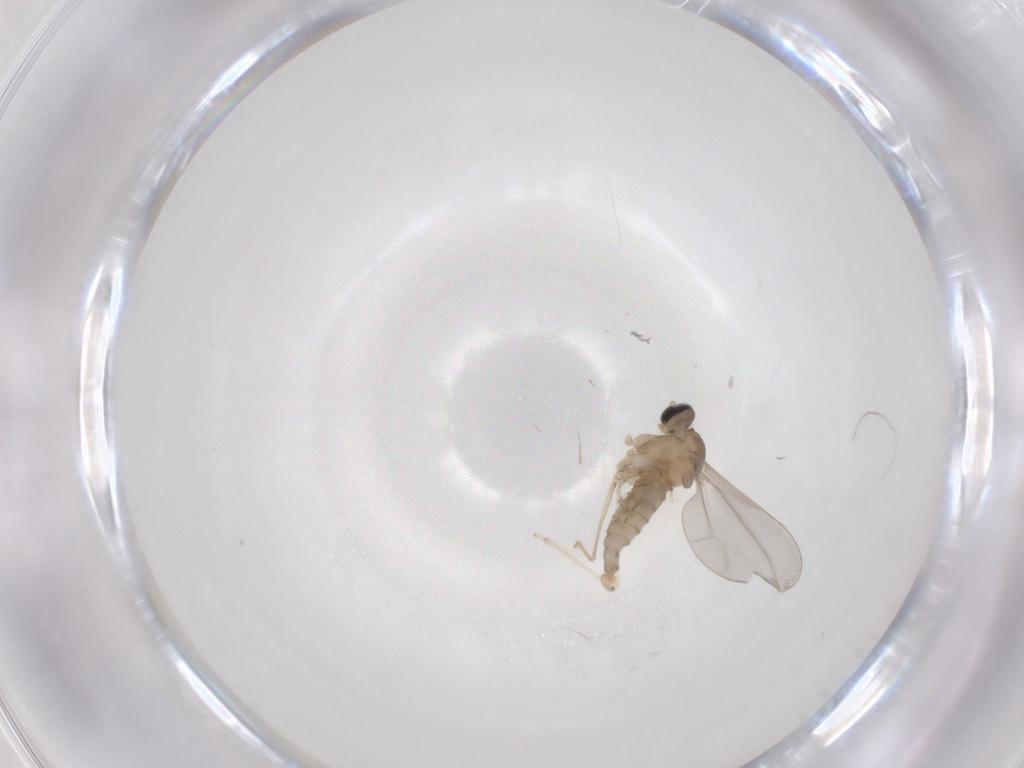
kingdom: Animalia
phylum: Arthropoda
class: Insecta
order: Diptera
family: Cecidomyiidae
